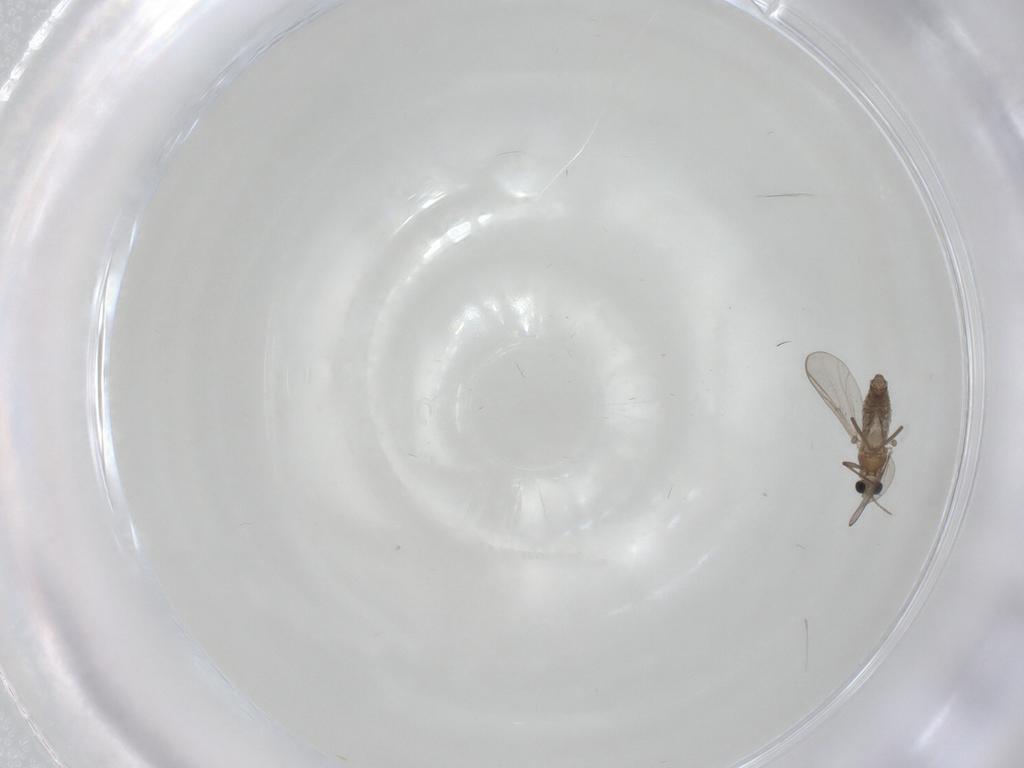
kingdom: Animalia
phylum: Arthropoda
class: Insecta
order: Diptera
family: Chironomidae
